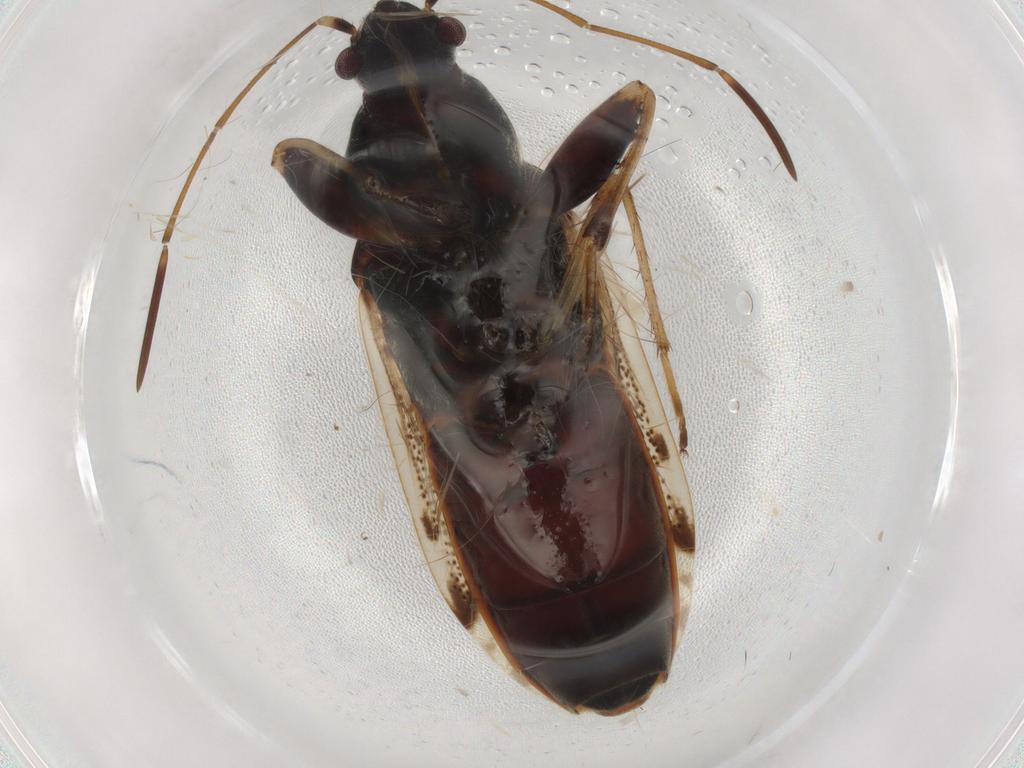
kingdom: Animalia
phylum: Arthropoda
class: Insecta
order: Hemiptera
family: Rhyparochromidae
